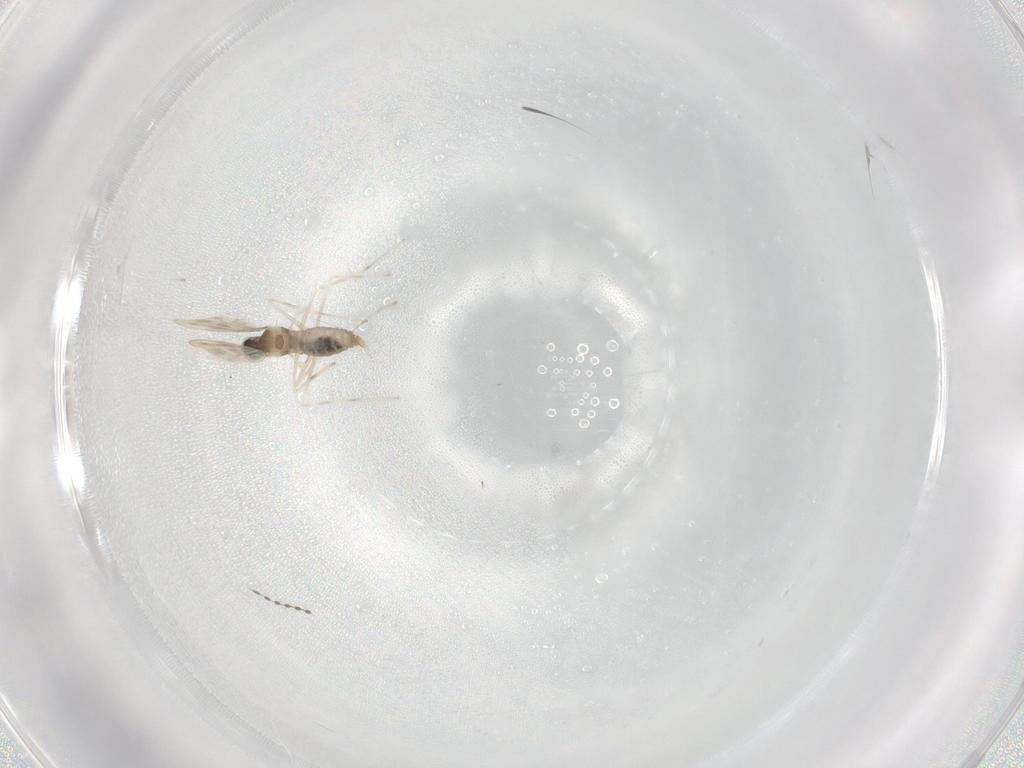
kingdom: Animalia
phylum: Arthropoda
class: Insecta
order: Diptera
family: Cecidomyiidae
